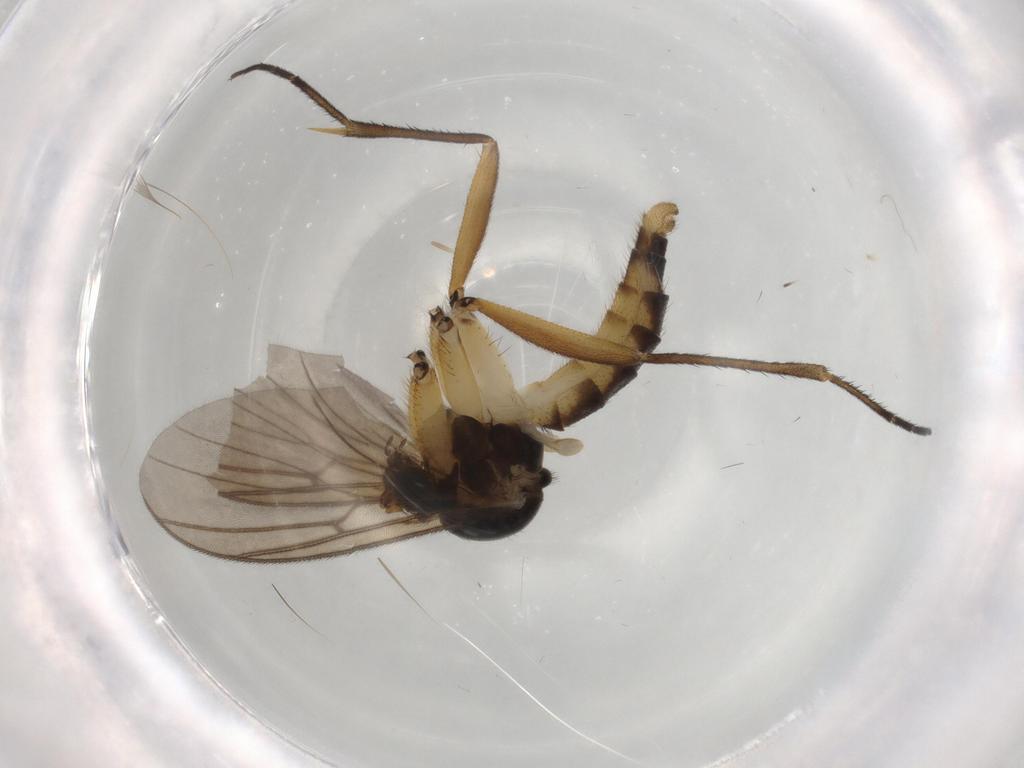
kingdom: Animalia
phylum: Arthropoda
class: Insecta
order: Diptera
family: Sciaridae
